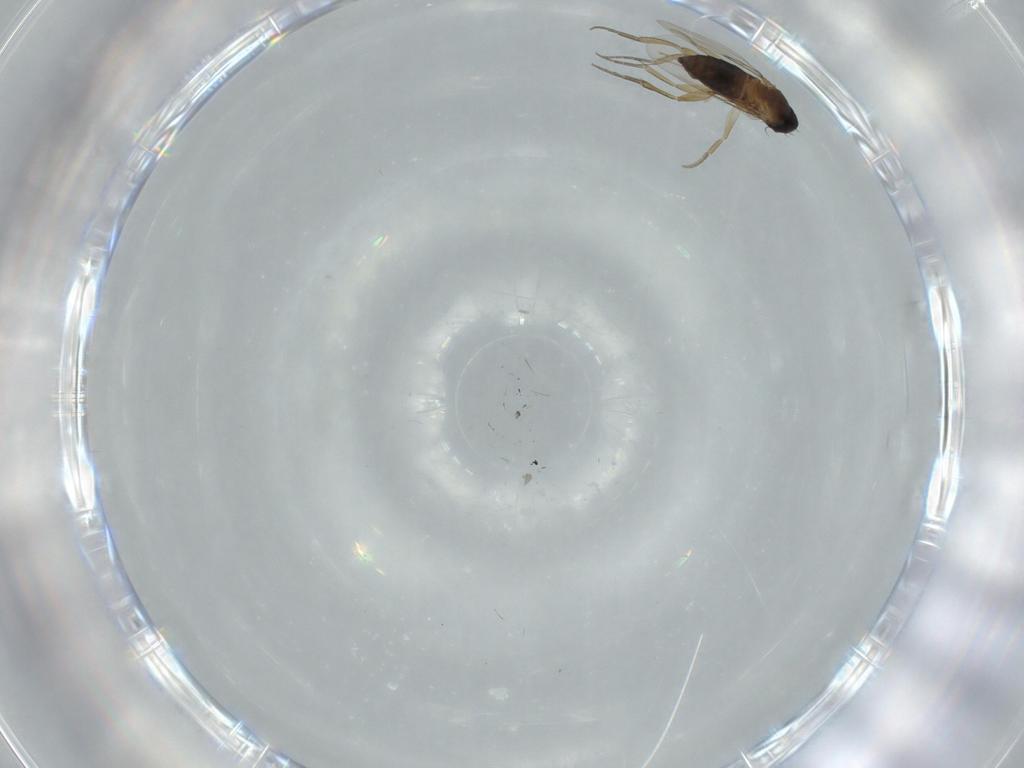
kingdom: Animalia
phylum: Arthropoda
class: Insecta
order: Diptera
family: Phoridae
